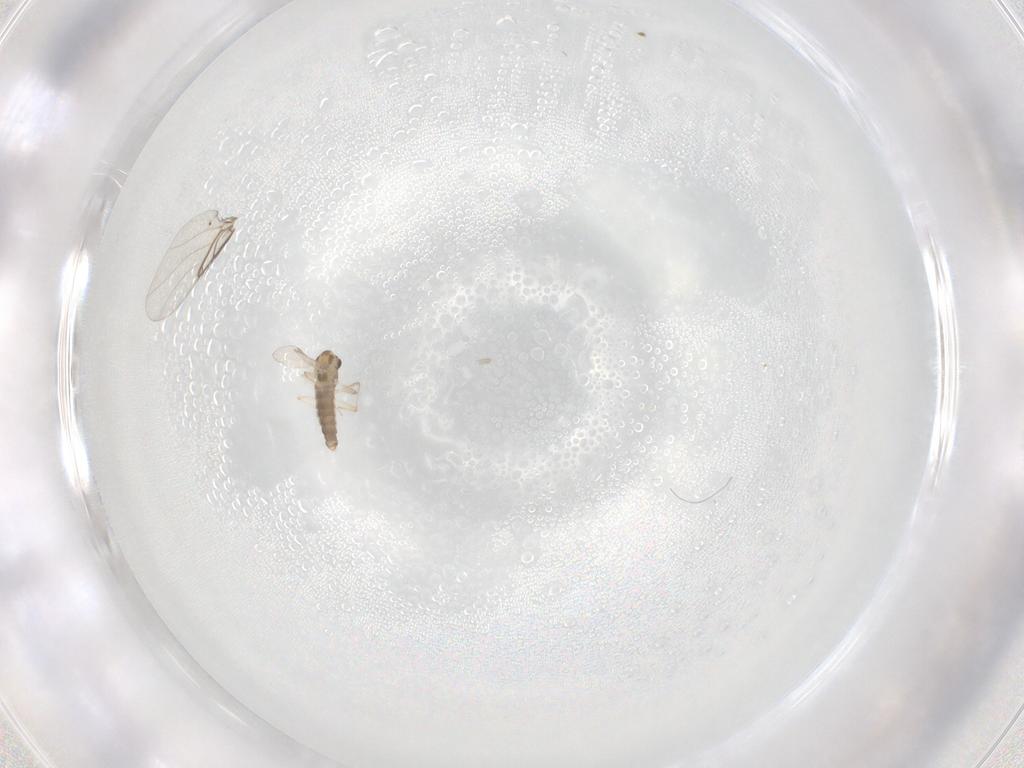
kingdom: Animalia
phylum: Arthropoda
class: Insecta
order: Diptera
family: Chironomidae
